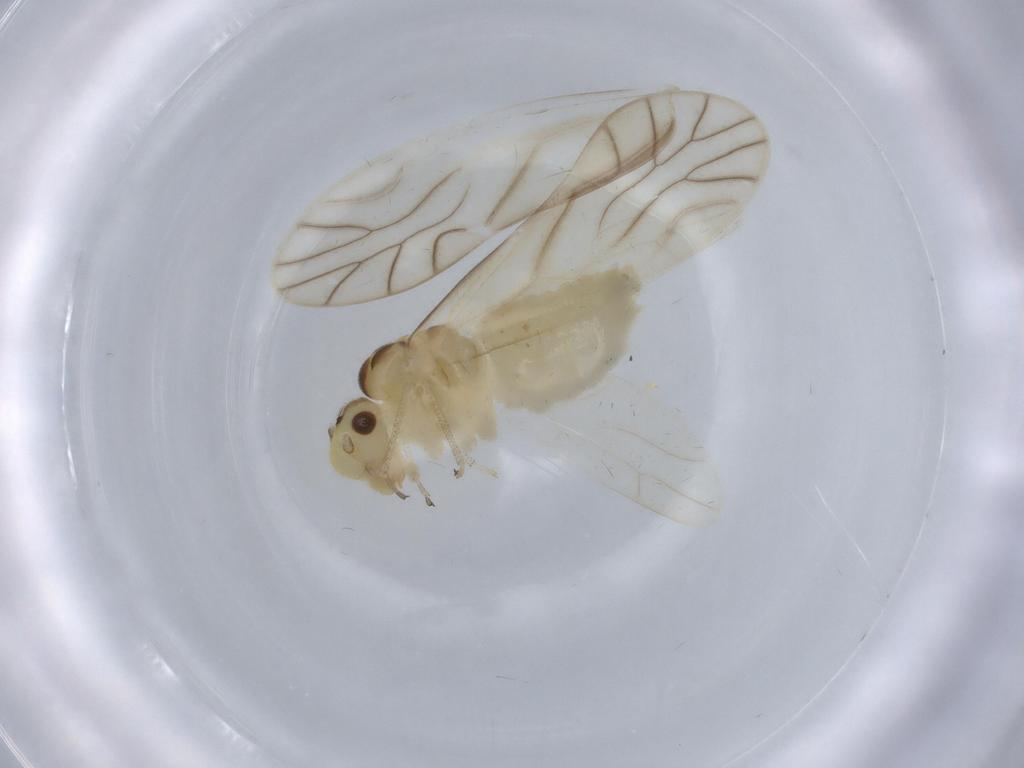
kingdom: Animalia
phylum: Arthropoda
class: Insecta
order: Psocodea
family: Caeciliusidae
